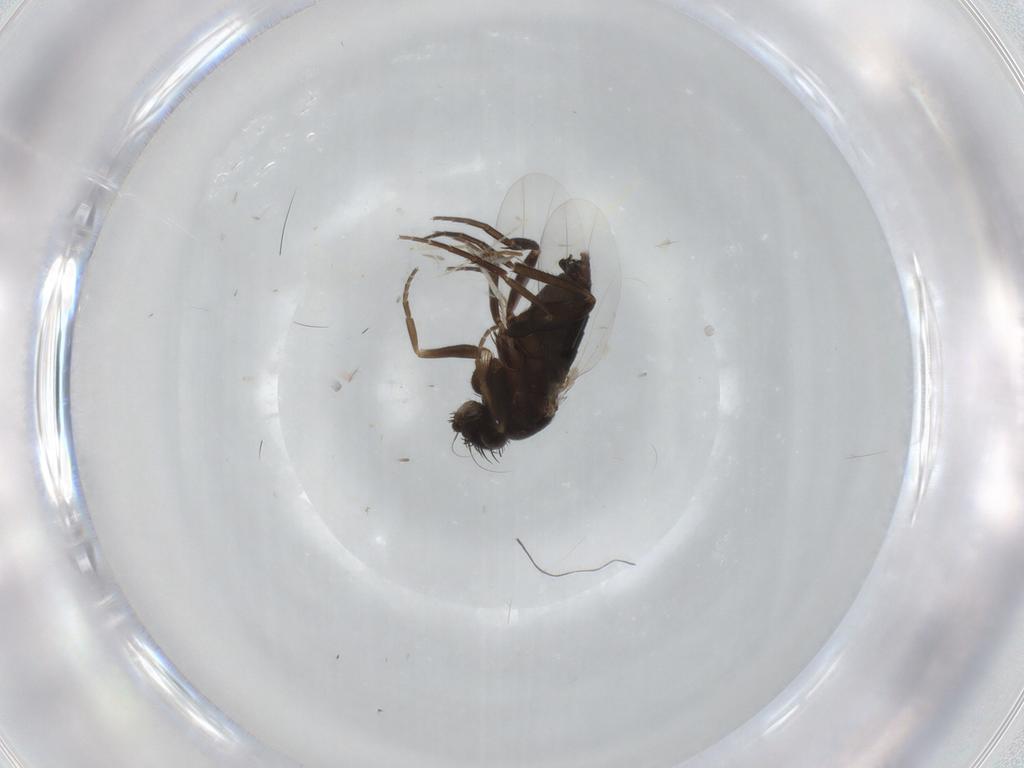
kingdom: Animalia
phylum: Arthropoda
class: Insecta
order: Diptera
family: Phoridae
